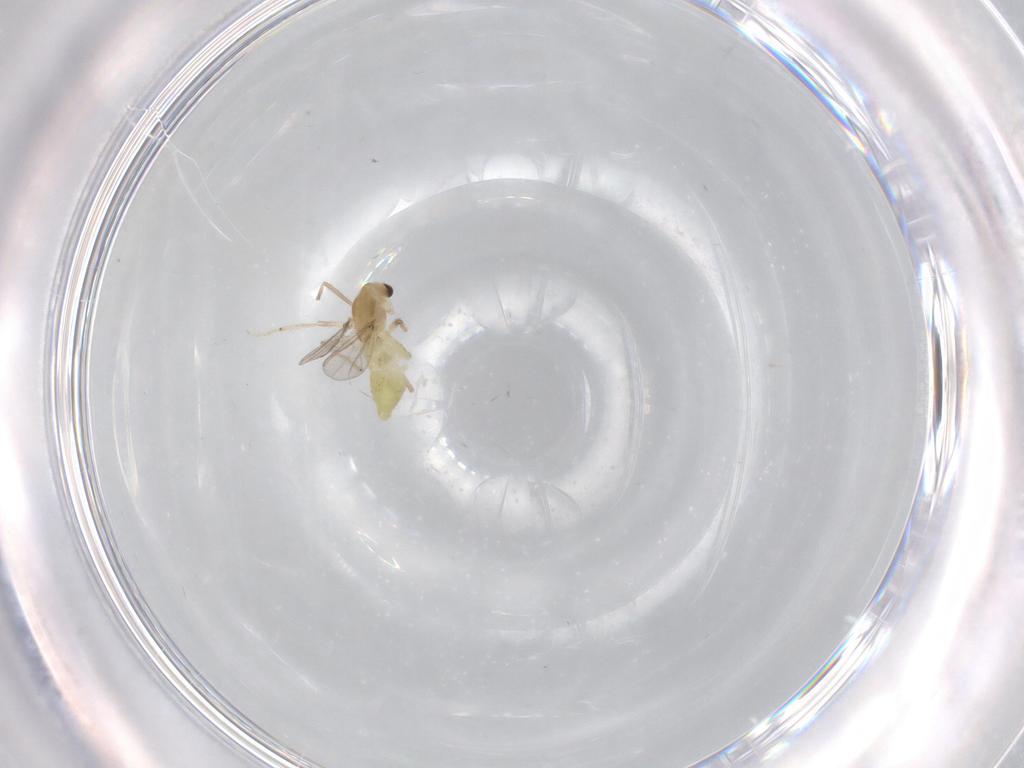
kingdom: Animalia
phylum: Arthropoda
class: Insecta
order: Diptera
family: Chironomidae
